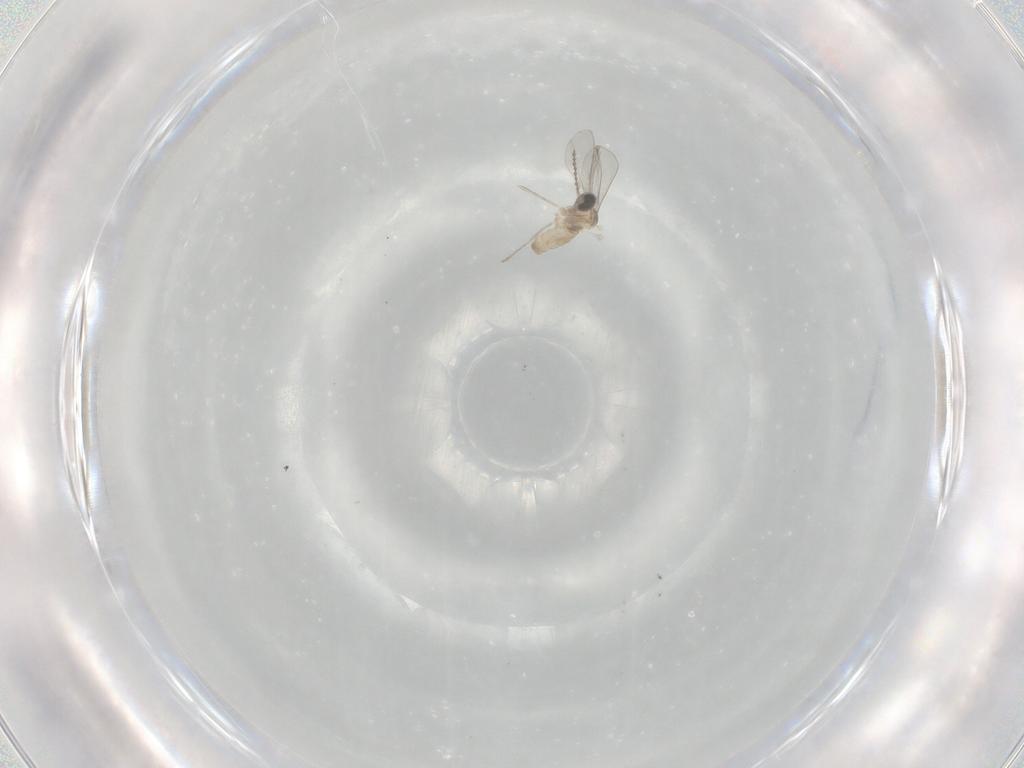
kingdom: Animalia
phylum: Arthropoda
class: Insecta
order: Diptera
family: Cecidomyiidae
